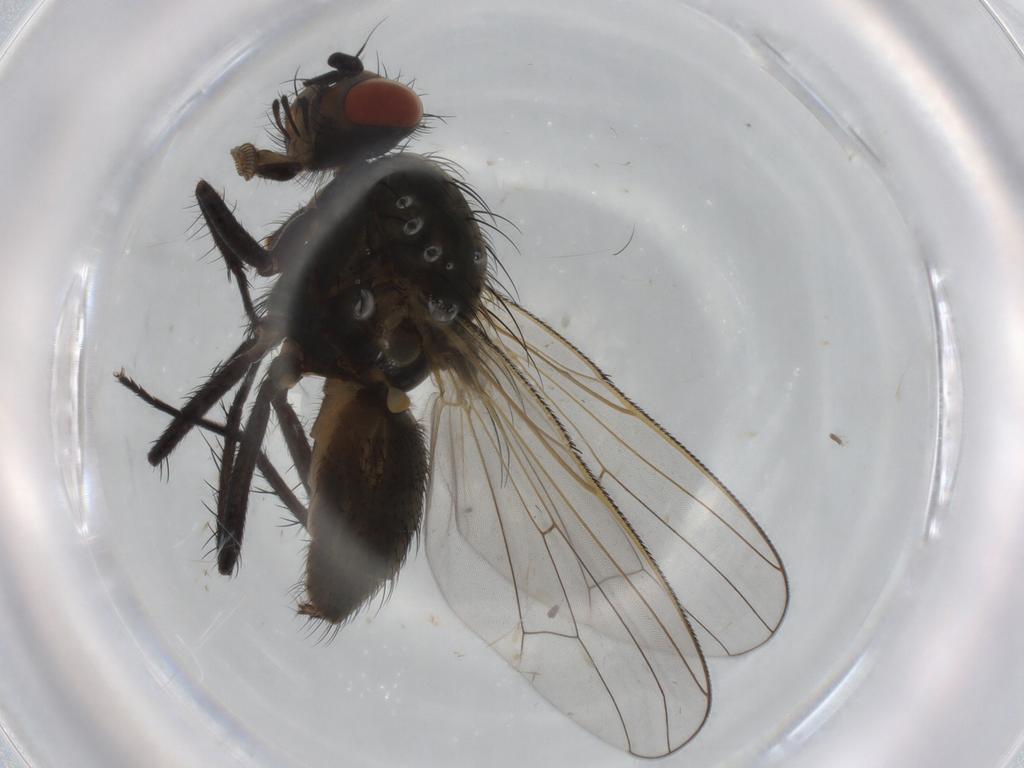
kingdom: Animalia
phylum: Arthropoda
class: Insecta
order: Diptera
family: Anthomyiidae
